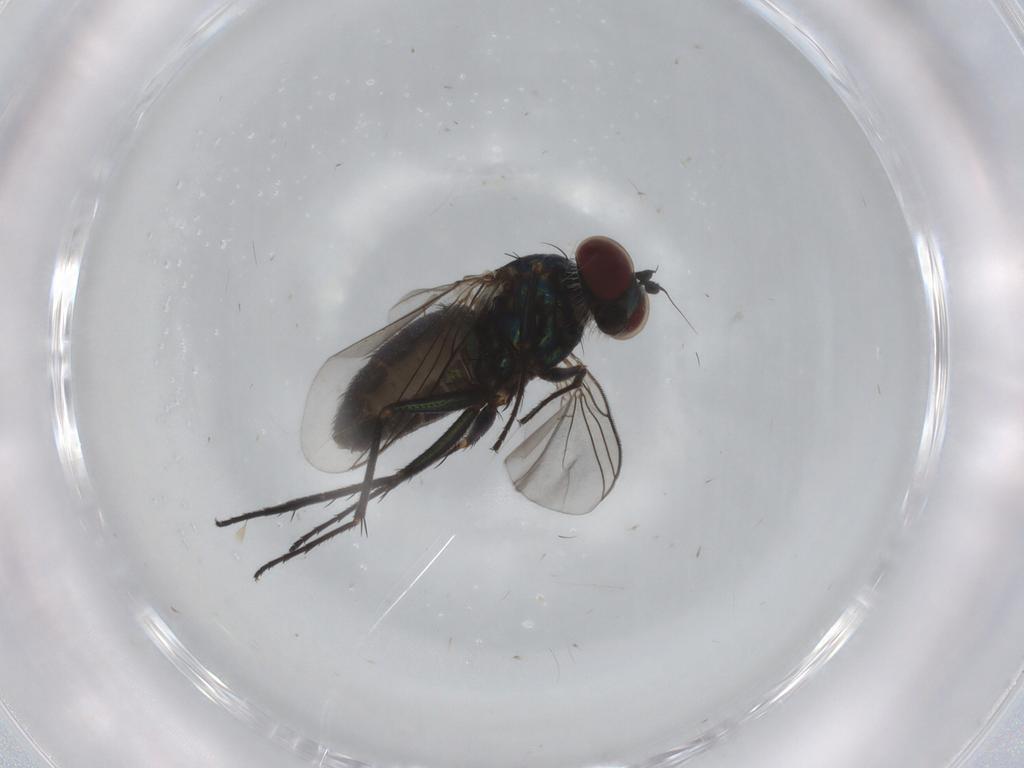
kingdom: Animalia
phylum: Arthropoda
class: Insecta
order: Diptera
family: Dolichopodidae
